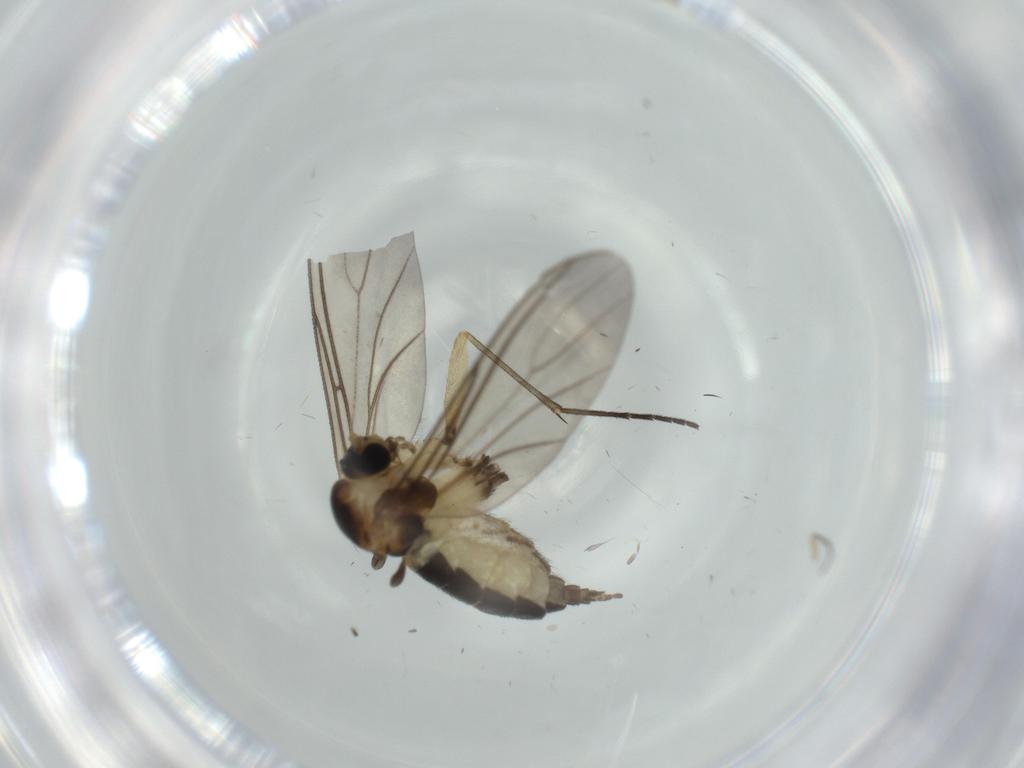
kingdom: Animalia
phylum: Arthropoda
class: Insecta
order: Diptera
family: Sciaridae
